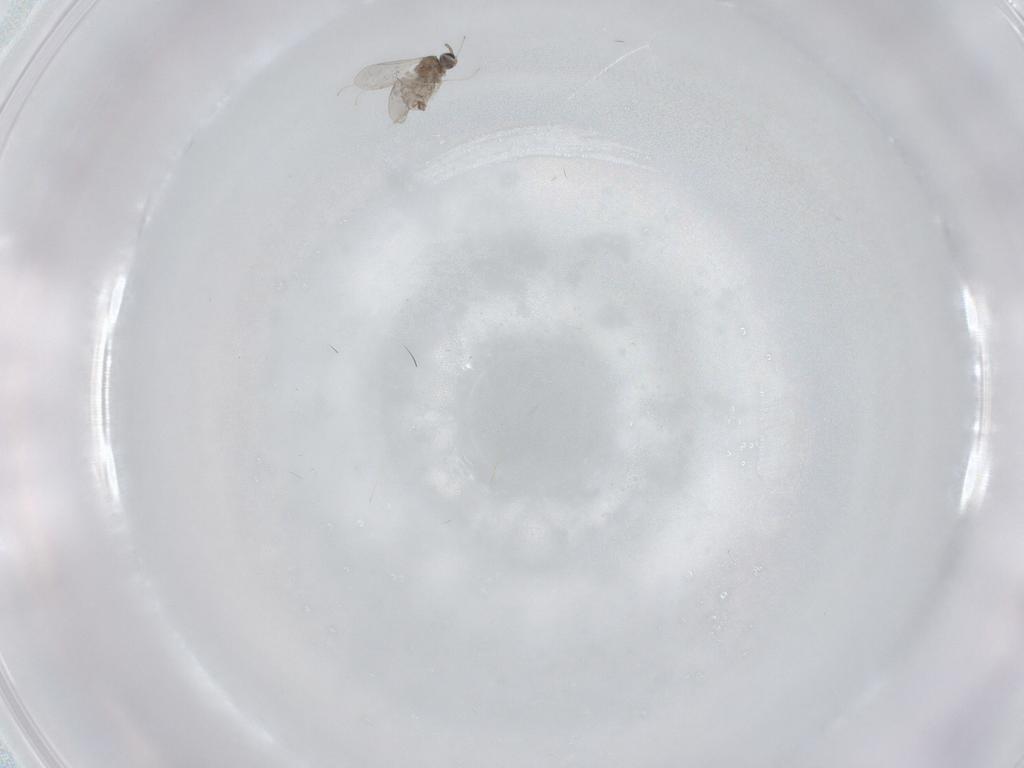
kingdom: Animalia
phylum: Arthropoda
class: Insecta
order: Diptera
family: Cecidomyiidae
